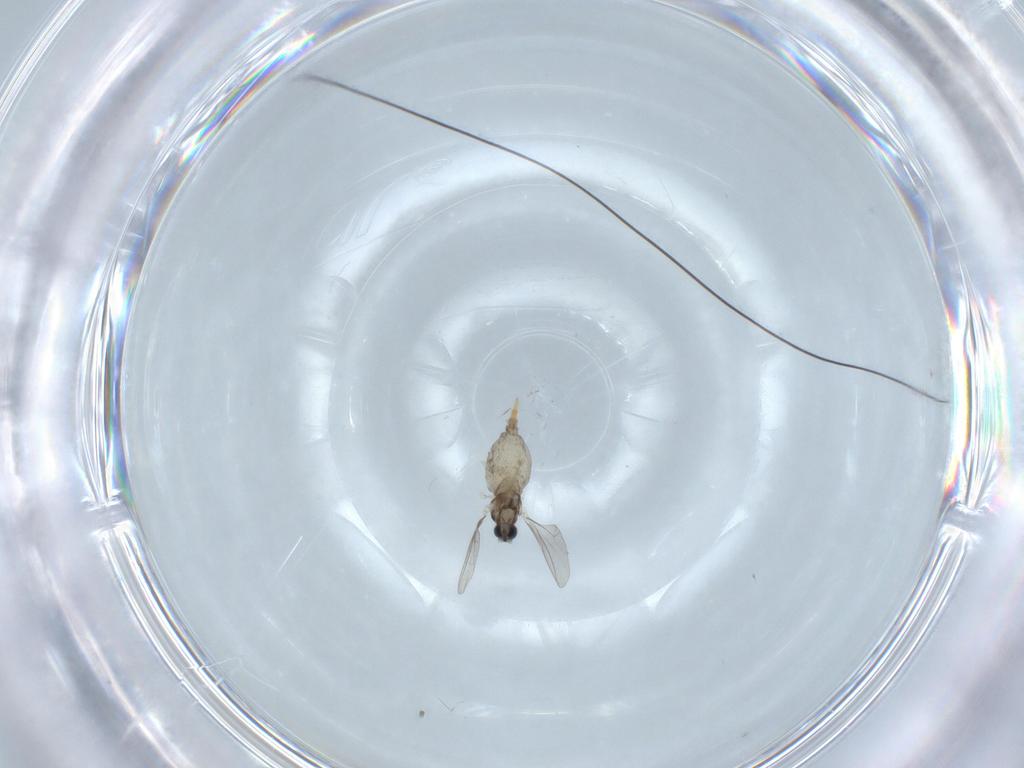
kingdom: Animalia
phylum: Arthropoda
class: Insecta
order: Diptera
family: Cecidomyiidae
